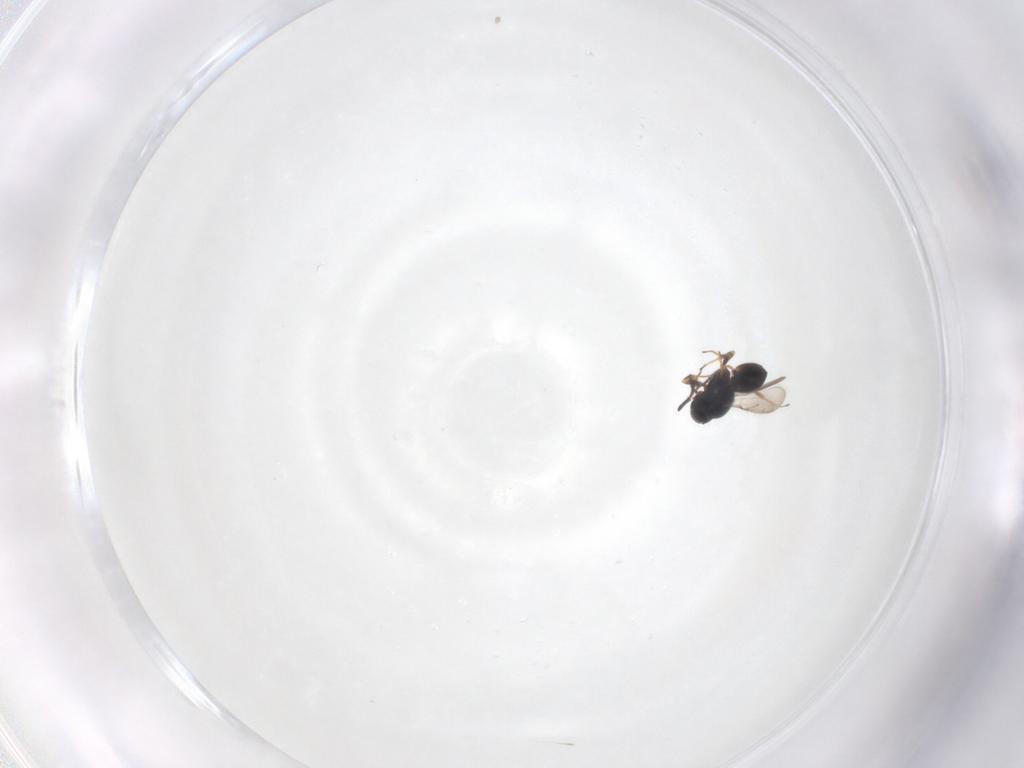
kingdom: Animalia
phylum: Arthropoda
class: Insecta
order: Hymenoptera
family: Scelionidae
